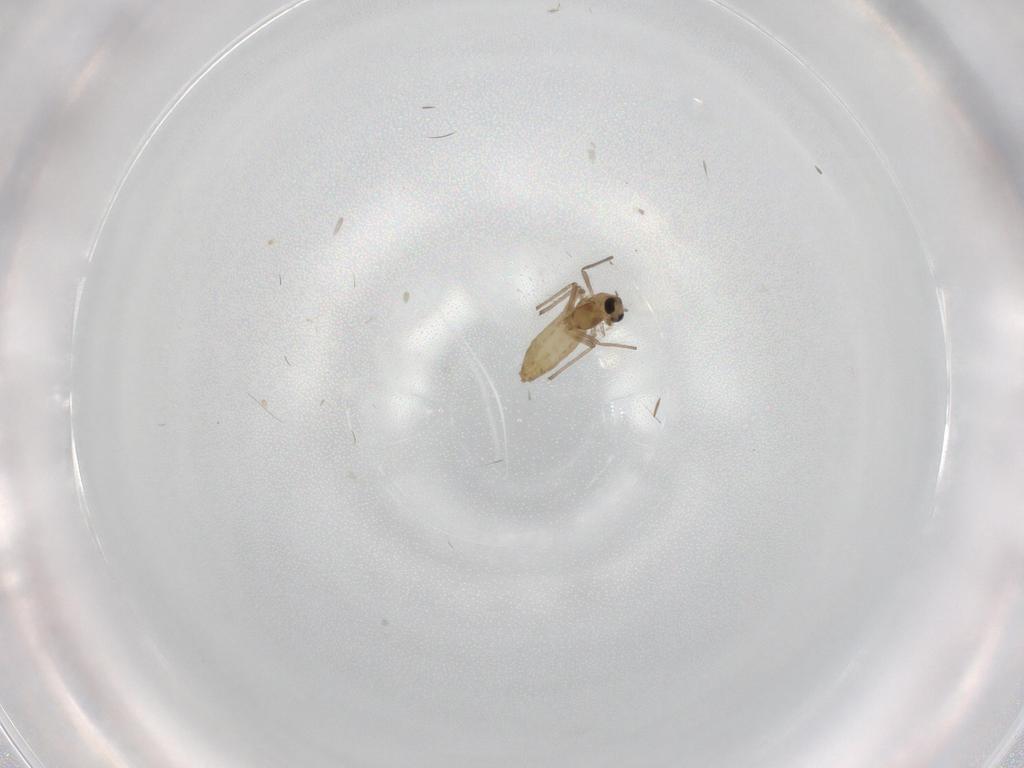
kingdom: Animalia
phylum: Arthropoda
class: Insecta
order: Diptera
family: Chironomidae
